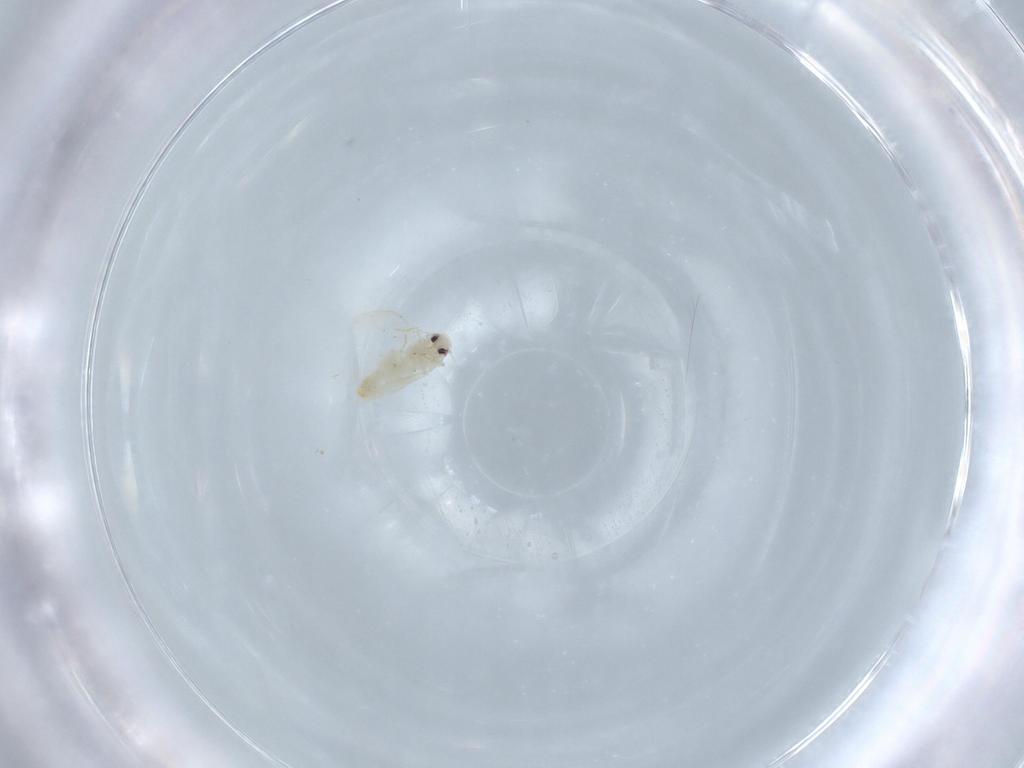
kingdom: Animalia
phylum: Arthropoda
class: Insecta
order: Hemiptera
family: Aleyrodidae
